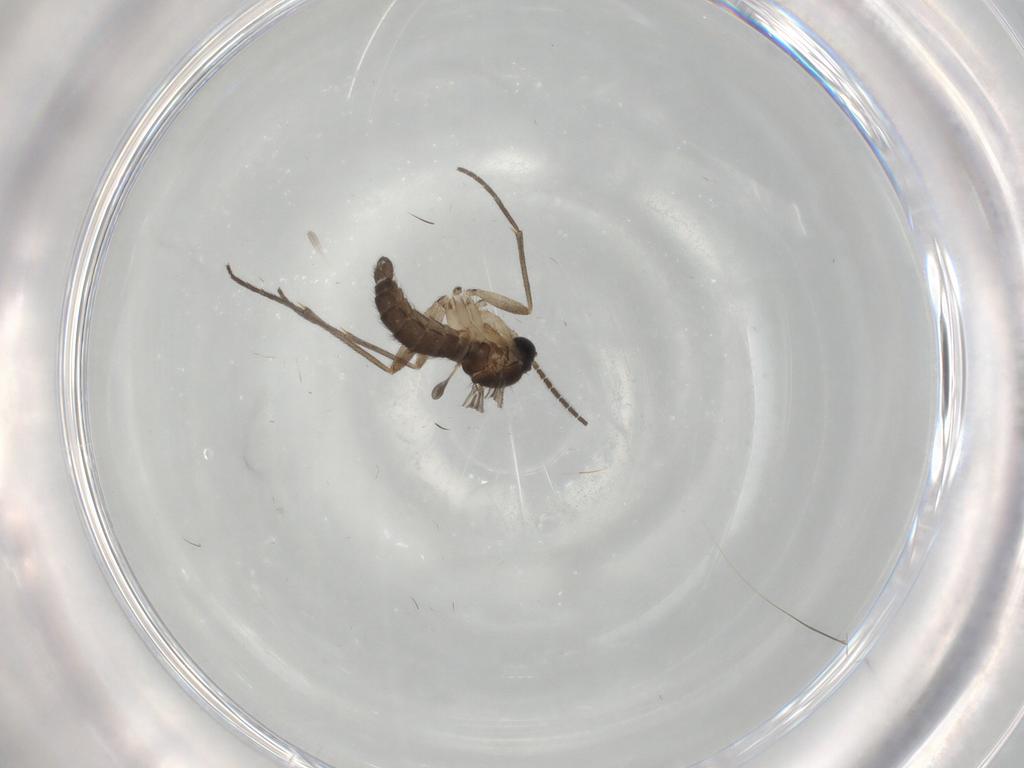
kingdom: Animalia
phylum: Arthropoda
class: Insecta
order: Diptera
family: Sciaridae
